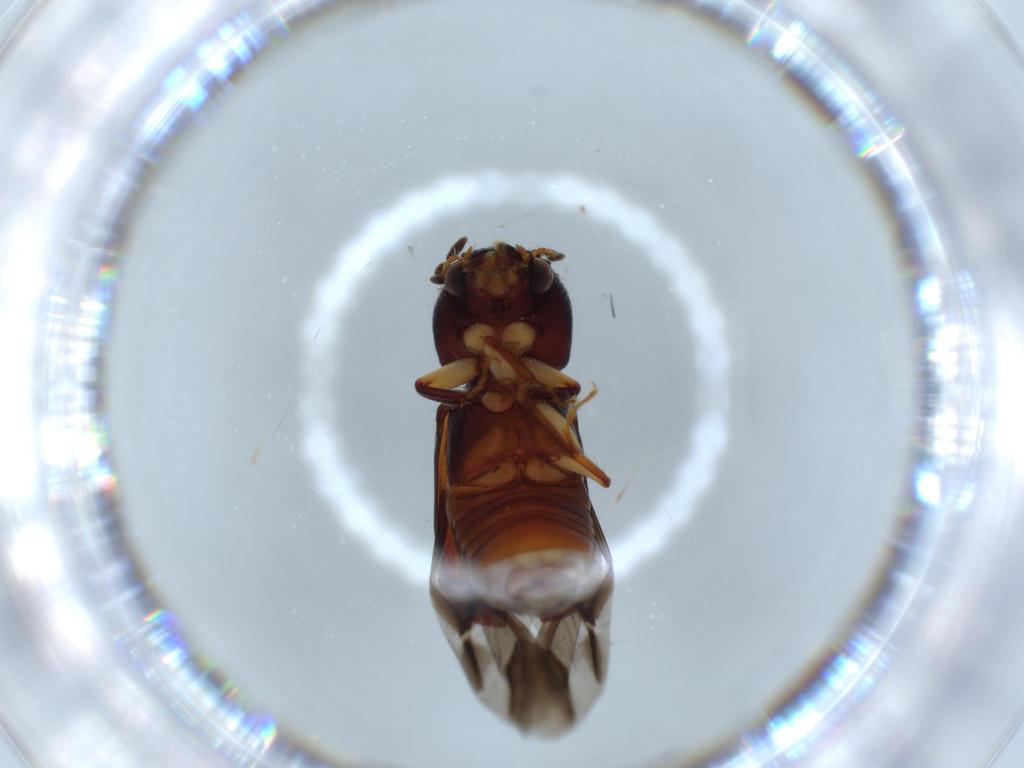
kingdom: Animalia
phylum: Arthropoda
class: Insecta
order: Coleoptera
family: Bostrichidae
